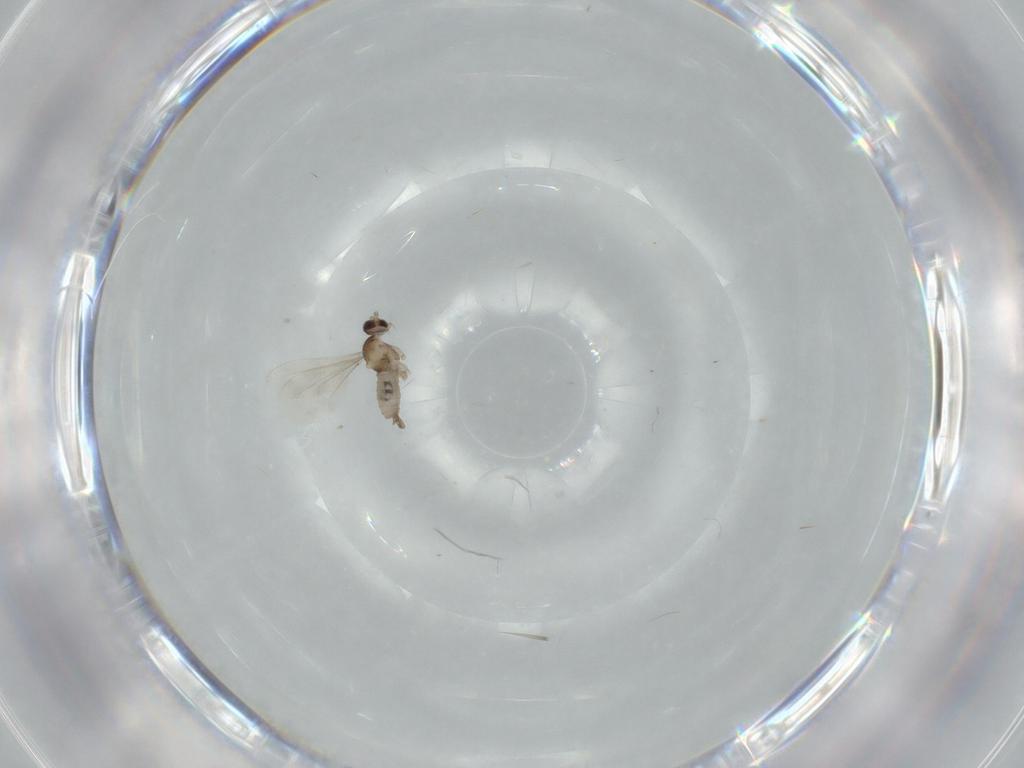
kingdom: Animalia
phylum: Arthropoda
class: Insecta
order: Diptera
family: Cecidomyiidae
